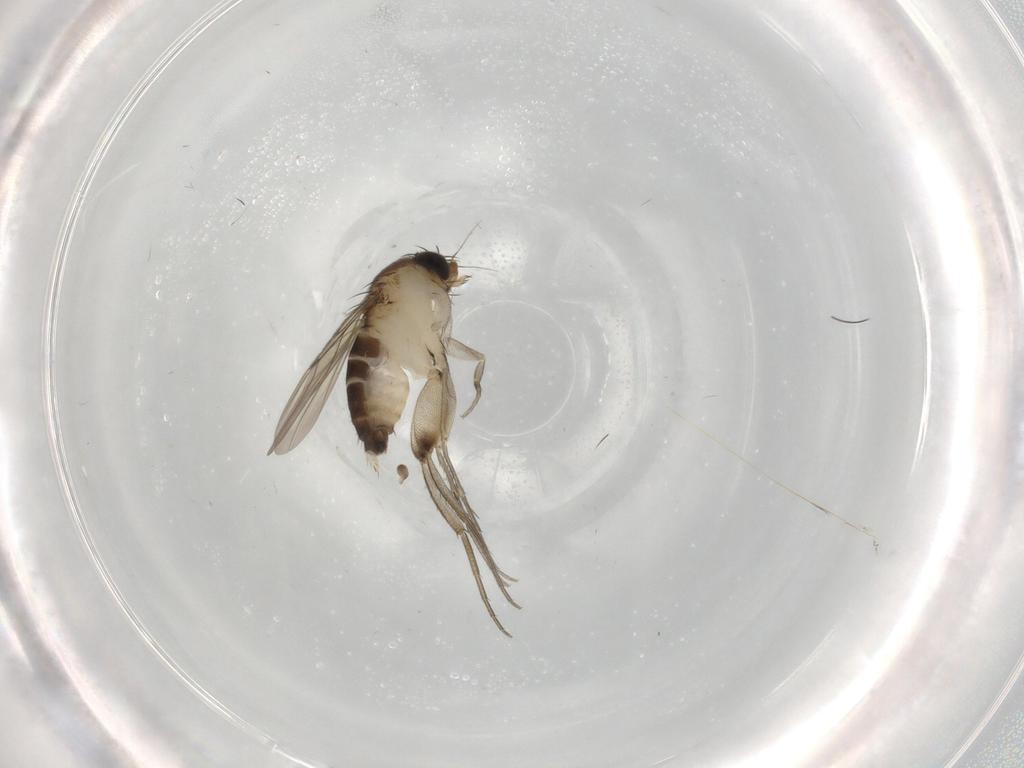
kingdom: Animalia
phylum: Arthropoda
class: Insecta
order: Diptera
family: Phoridae
